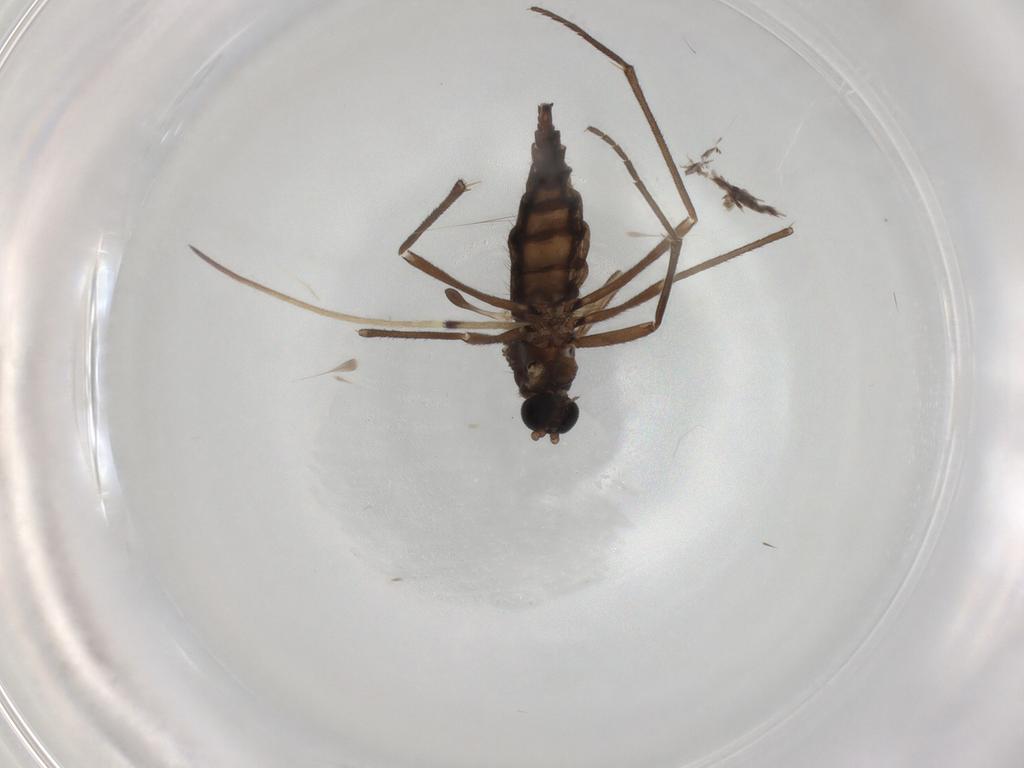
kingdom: Animalia
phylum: Arthropoda
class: Insecta
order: Diptera
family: Sciaridae
